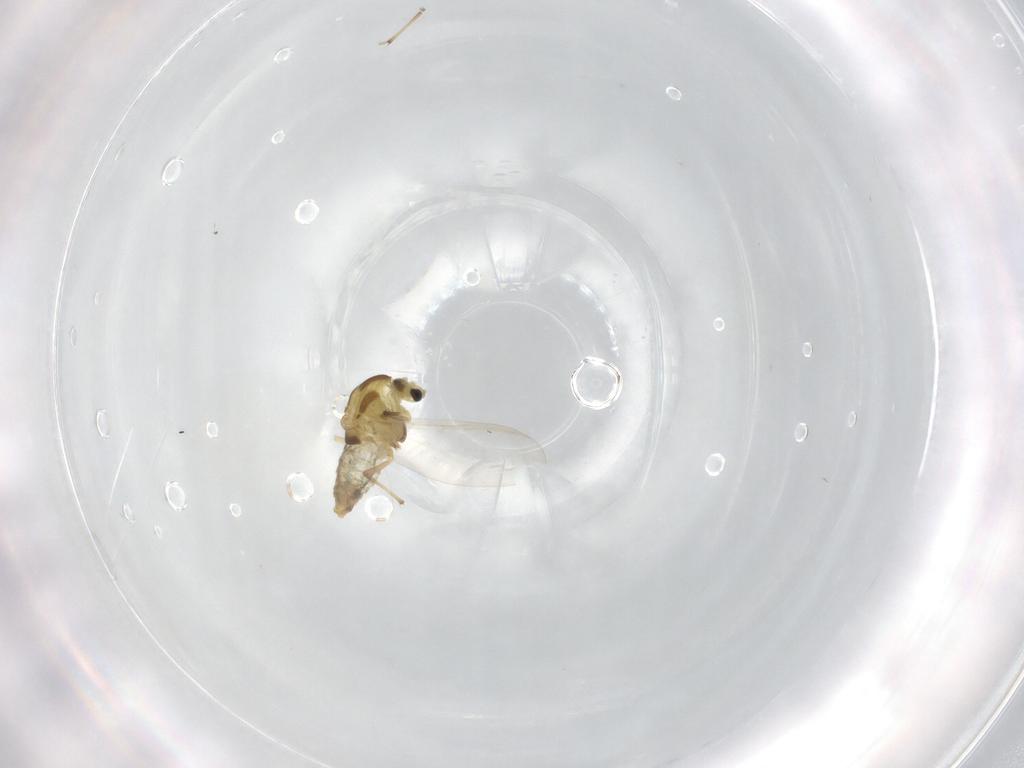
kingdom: Animalia
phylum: Arthropoda
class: Insecta
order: Diptera
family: Chironomidae
